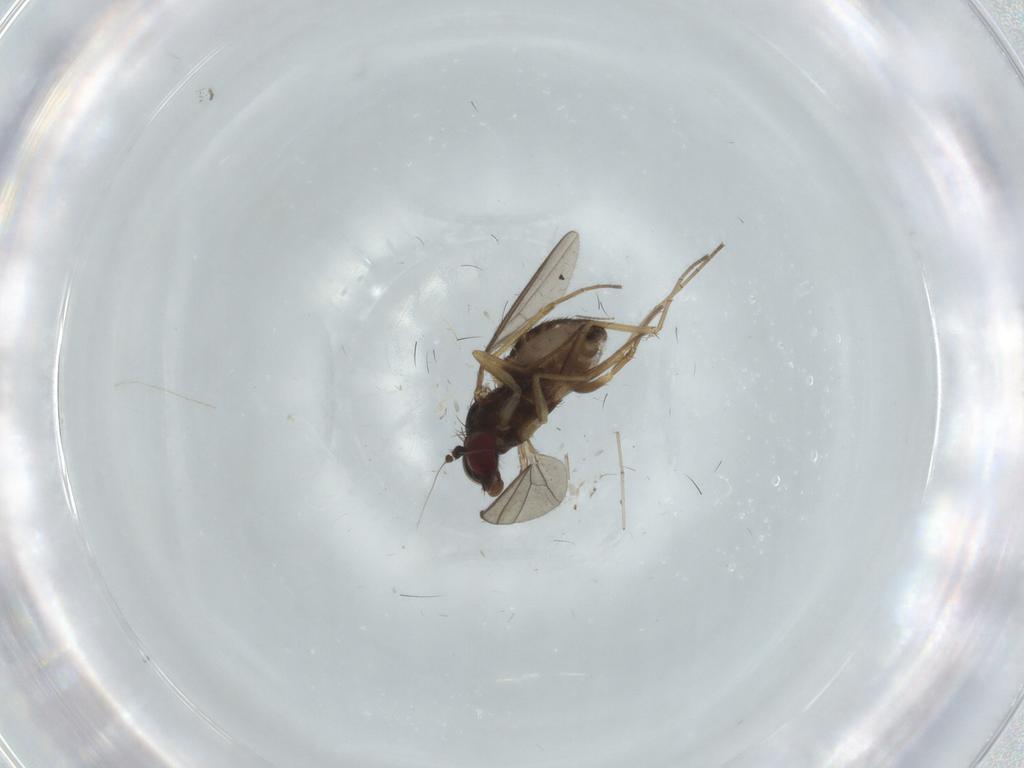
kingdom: Animalia
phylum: Arthropoda
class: Insecta
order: Diptera
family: Dolichopodidae
